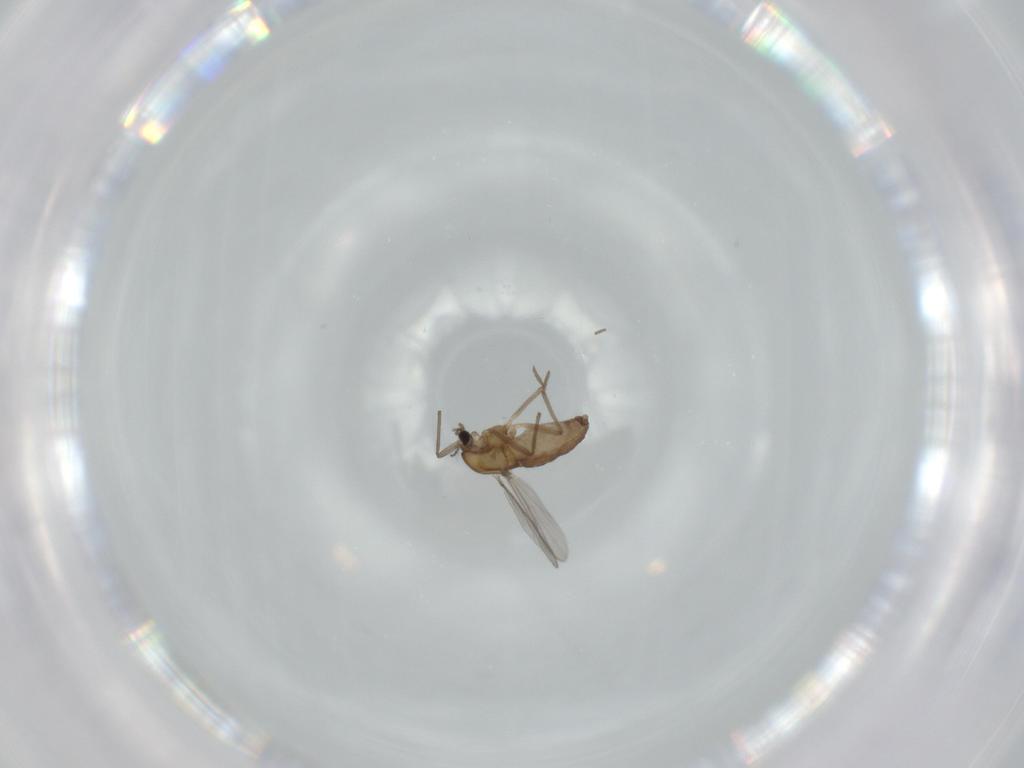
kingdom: Animalia
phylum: Arthropoda
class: Insecta
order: Diptera
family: Chironomidae
